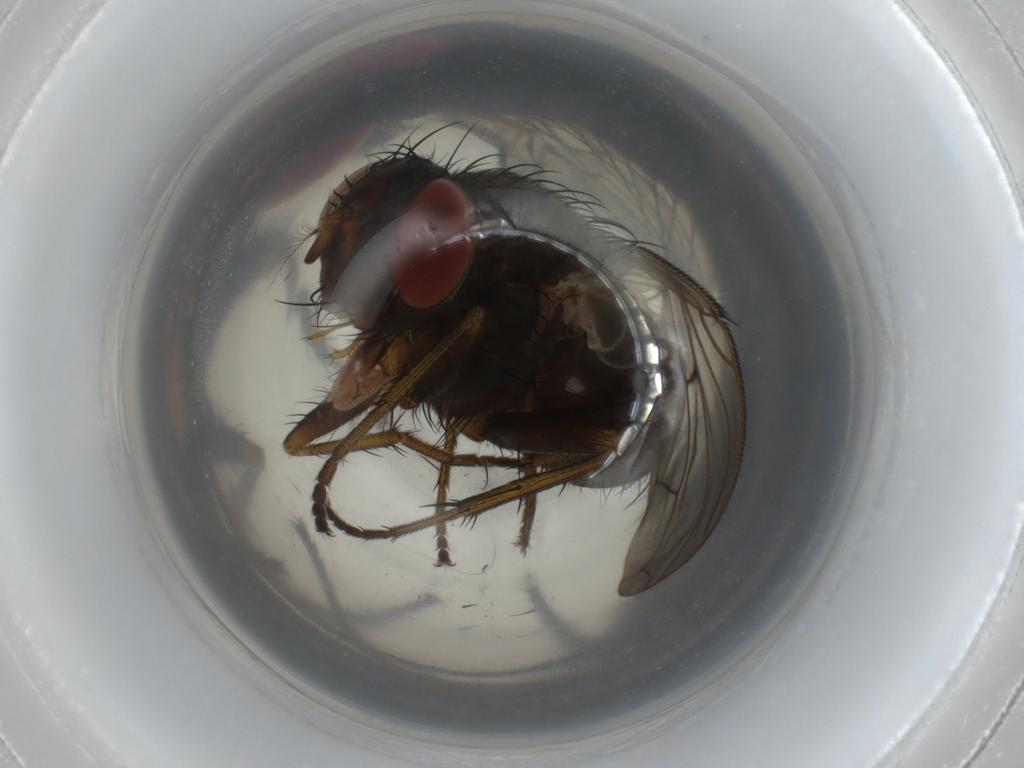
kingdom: Animalia
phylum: Arthropoda
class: Insecta
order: Diptera
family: Tachinidae
